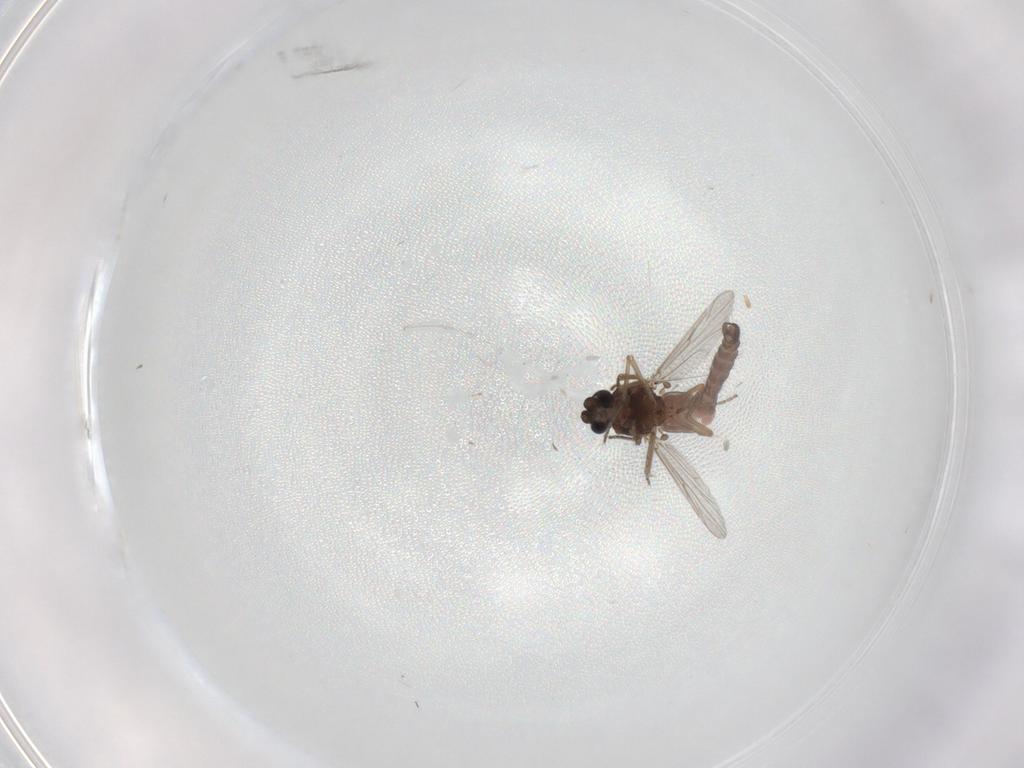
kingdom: Animalia
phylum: Arthropoda
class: Insecta
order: Diptera
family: Ceratopogonidae
